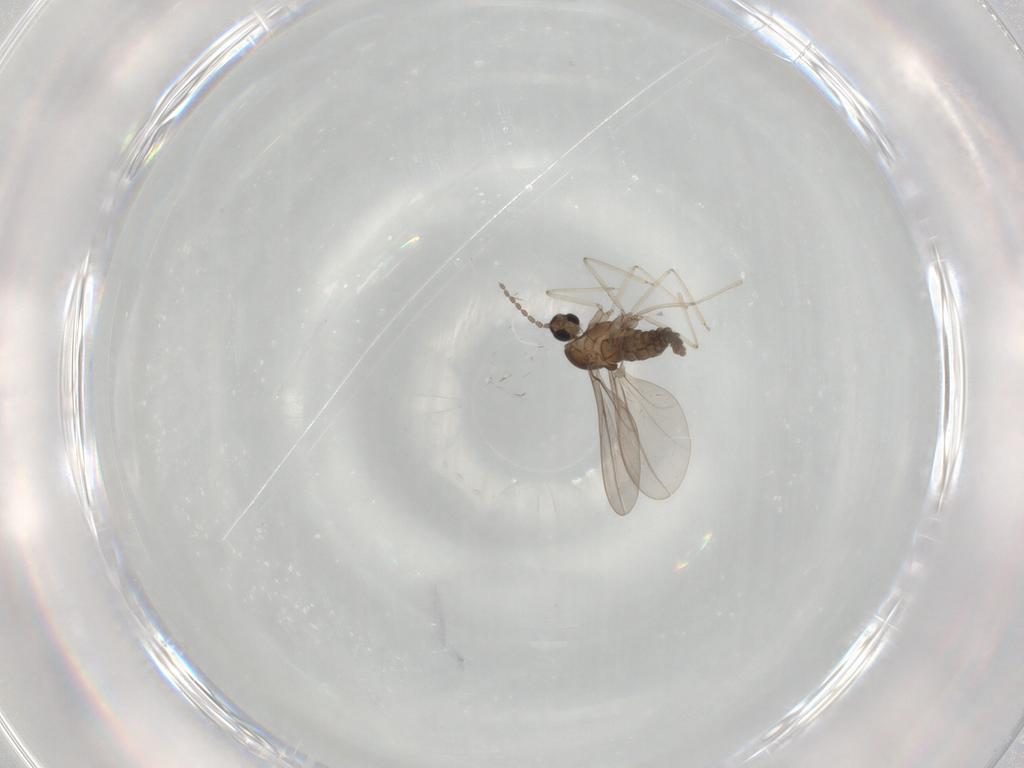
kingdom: Animalia
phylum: Arthropoda
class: Insecta
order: Diptera
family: Cecidomyiidae
